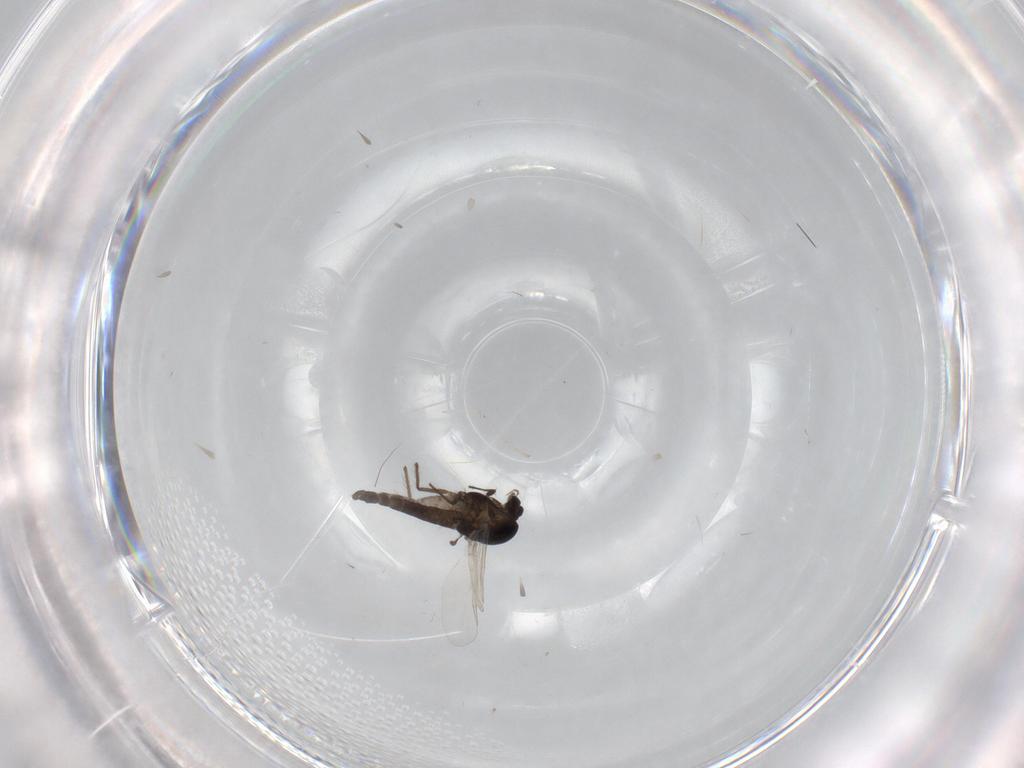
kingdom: Animalia
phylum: Arthropoda
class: Insecta
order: Diptera
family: Chironomidae
